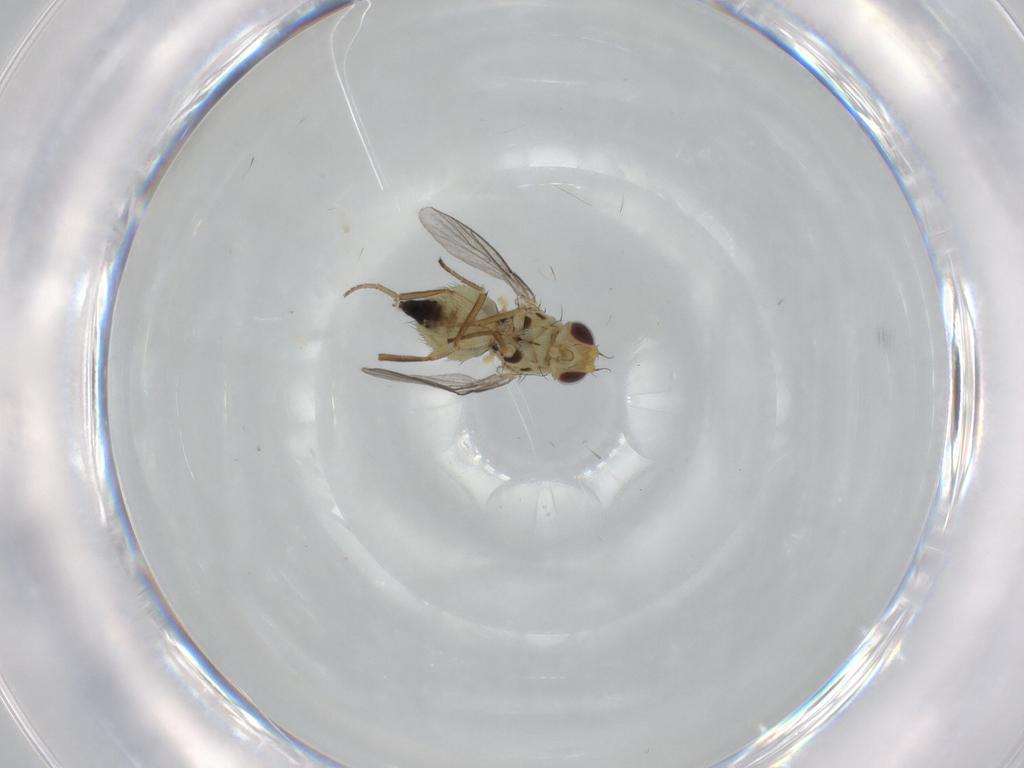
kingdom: Animalia
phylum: Arthropoda
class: Insecta
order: Diptera
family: Agromyzidae
